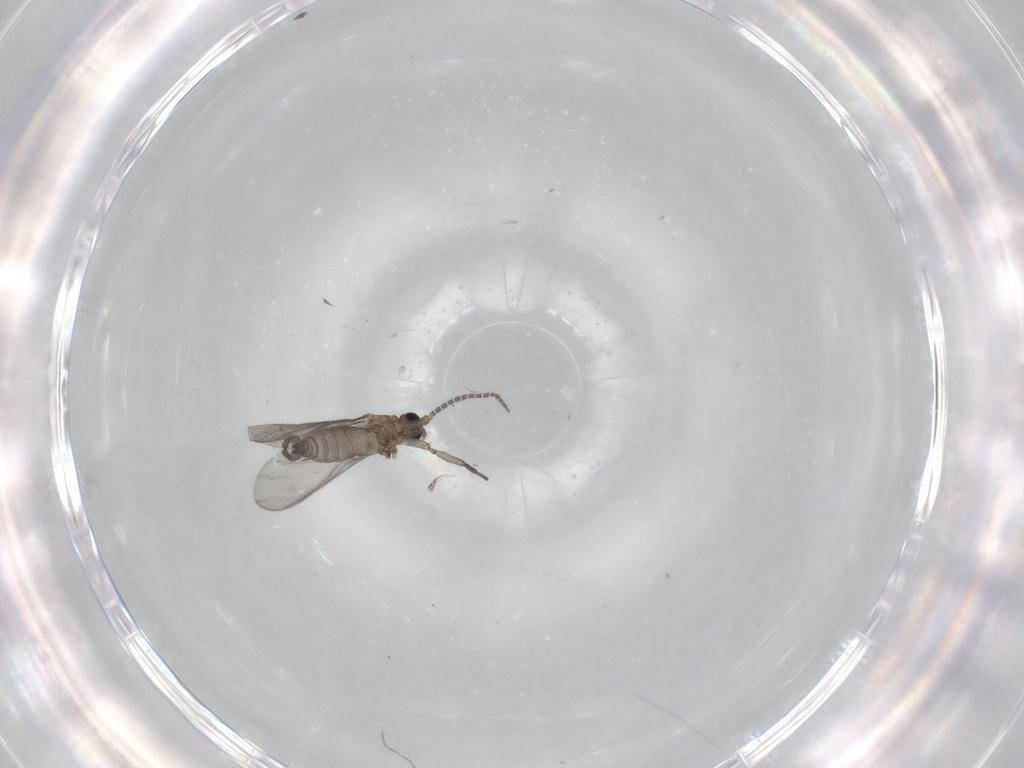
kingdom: Animalia
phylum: Arthropoda
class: Insecta
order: Diptera
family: Sciaridae
